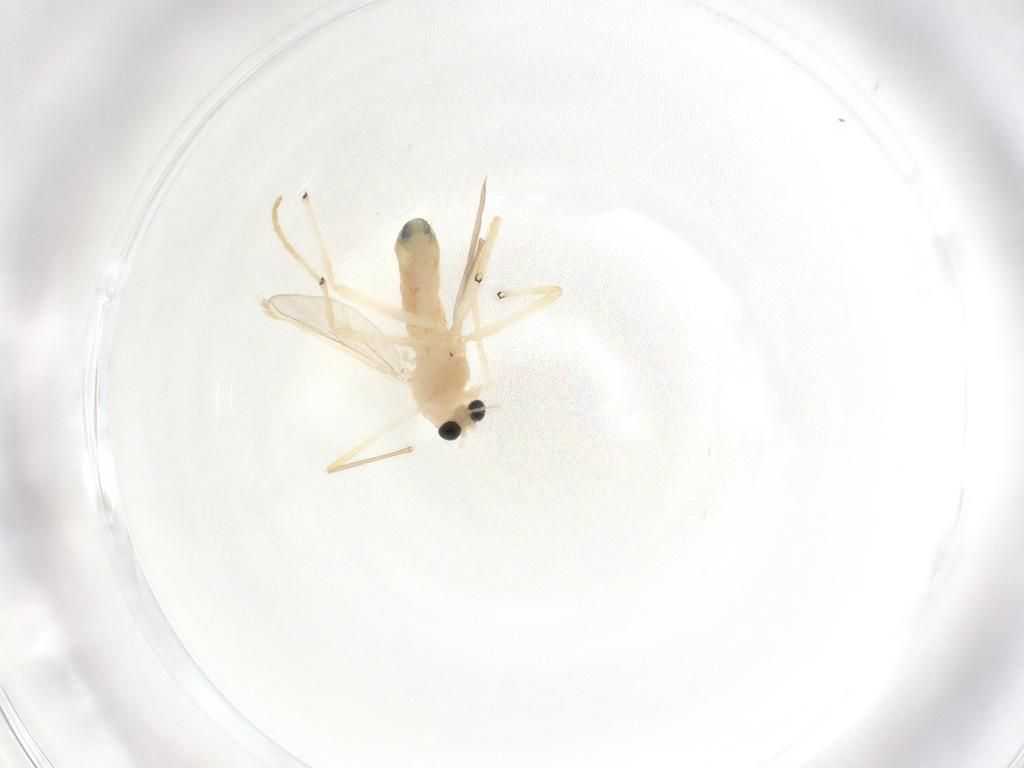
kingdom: Animalia
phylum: Arthropoda
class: Insecta
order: Diptera
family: Chironomidae
